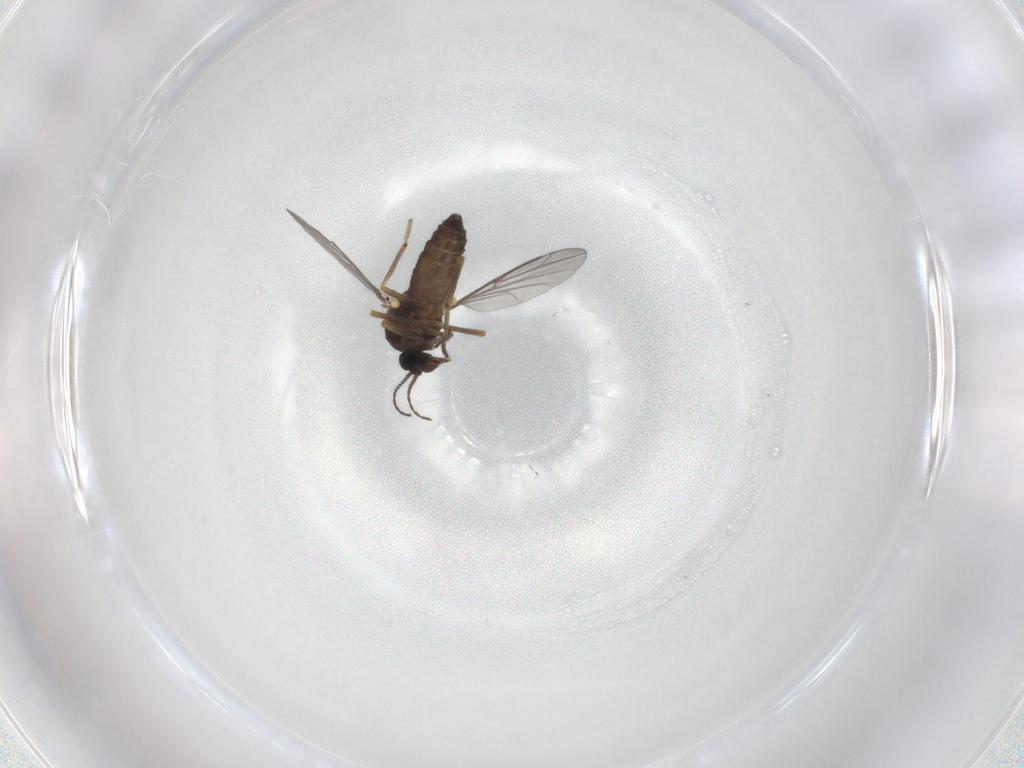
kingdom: Animalia
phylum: Arthropoda
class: Insecta
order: Diptera
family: Ceratopogonidae
